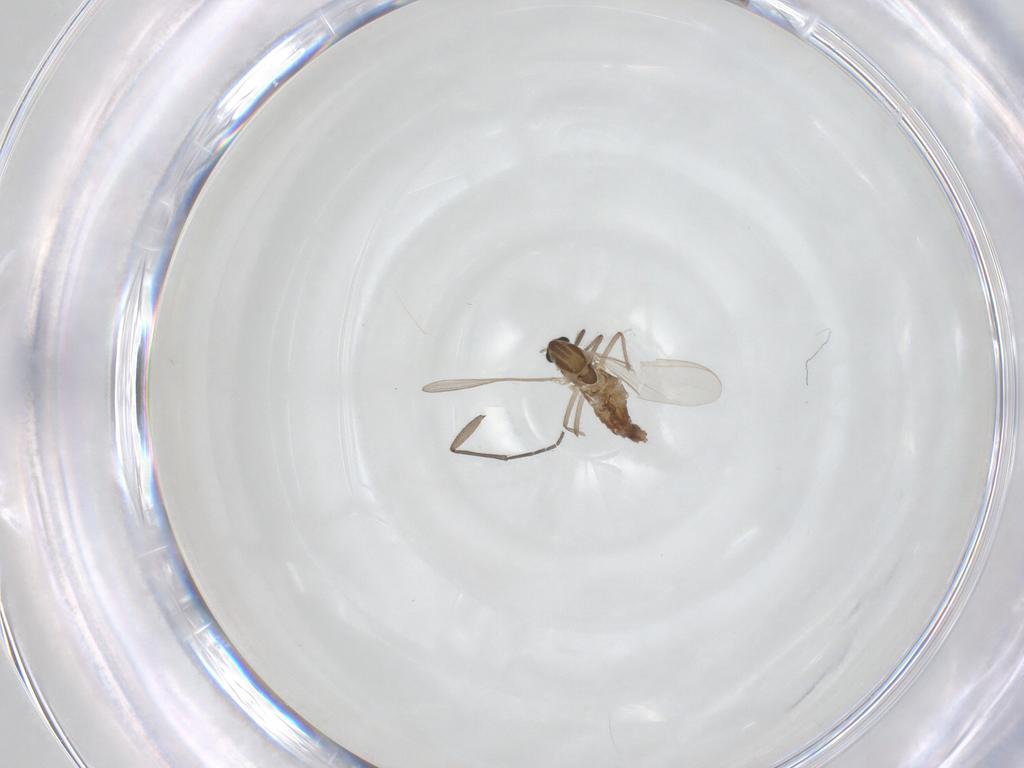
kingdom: Animalia
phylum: Arthropoda
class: Insecta
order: Diptera
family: Chironomidae
